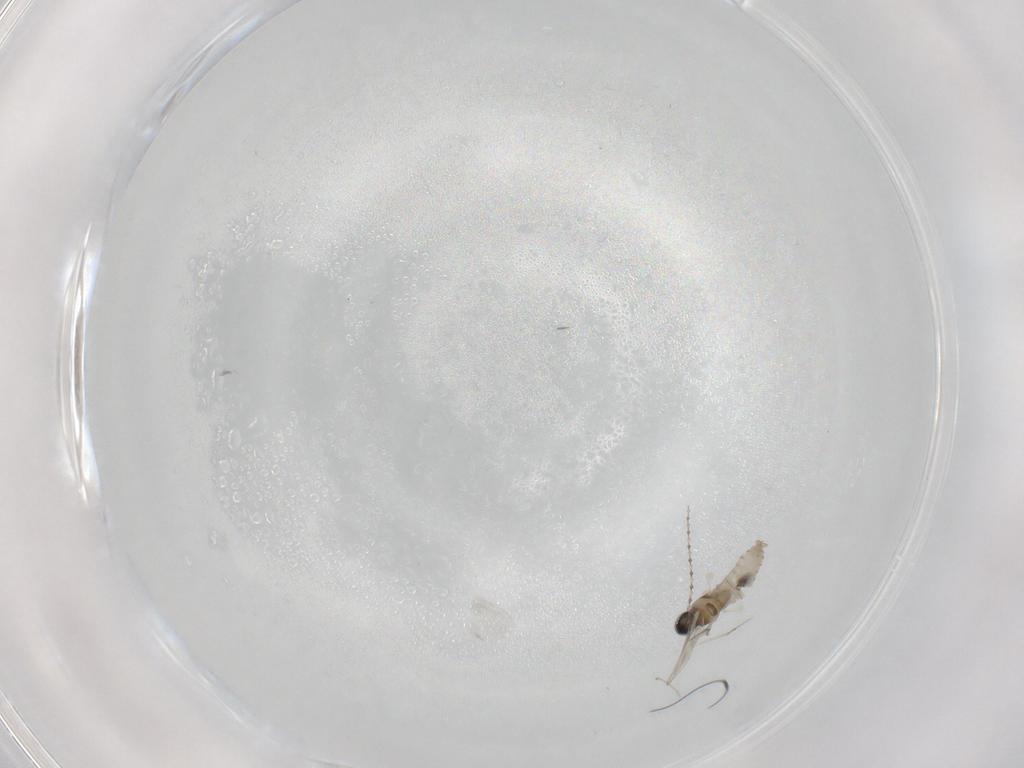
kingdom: Animalia
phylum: Arthropoda
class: Insecta
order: Diptera
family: Cecidomyiidae
